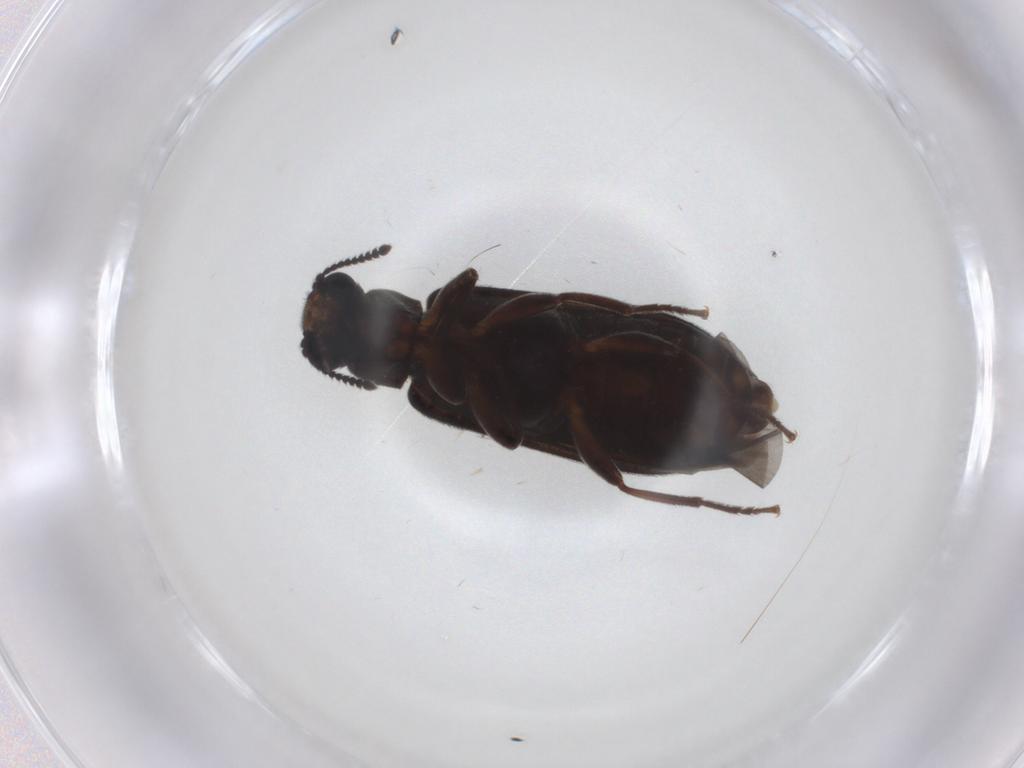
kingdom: Animalia
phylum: Arthropoda
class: Insecta
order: Coleoptera
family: Mycteridae
